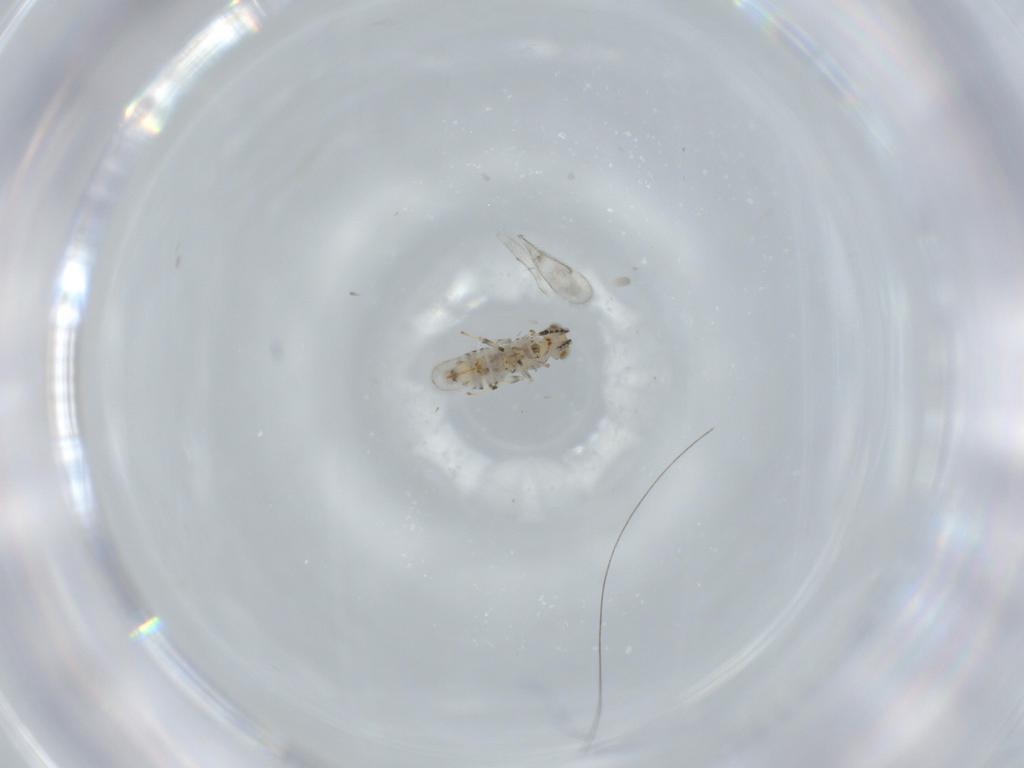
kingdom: Animalia
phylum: Arthropoda
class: Insecta
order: Hymenoptera
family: Aphelinidae
